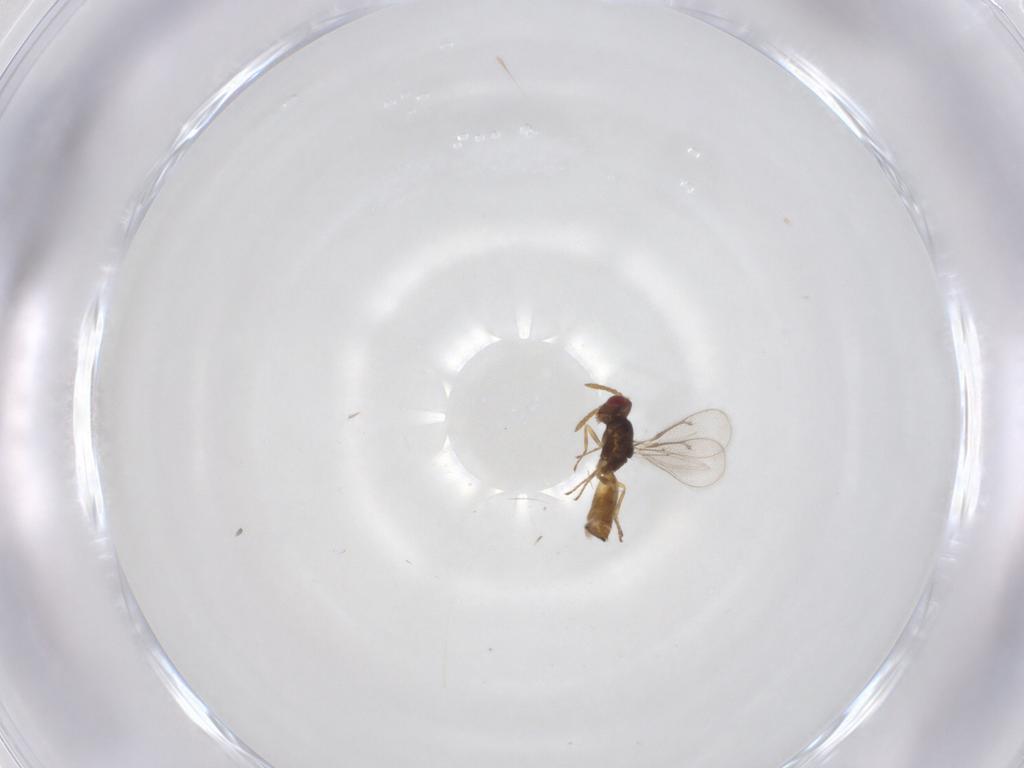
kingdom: Animalia
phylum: Arthropoda
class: Insecta
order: Hymenoptera
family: Eulophidae
